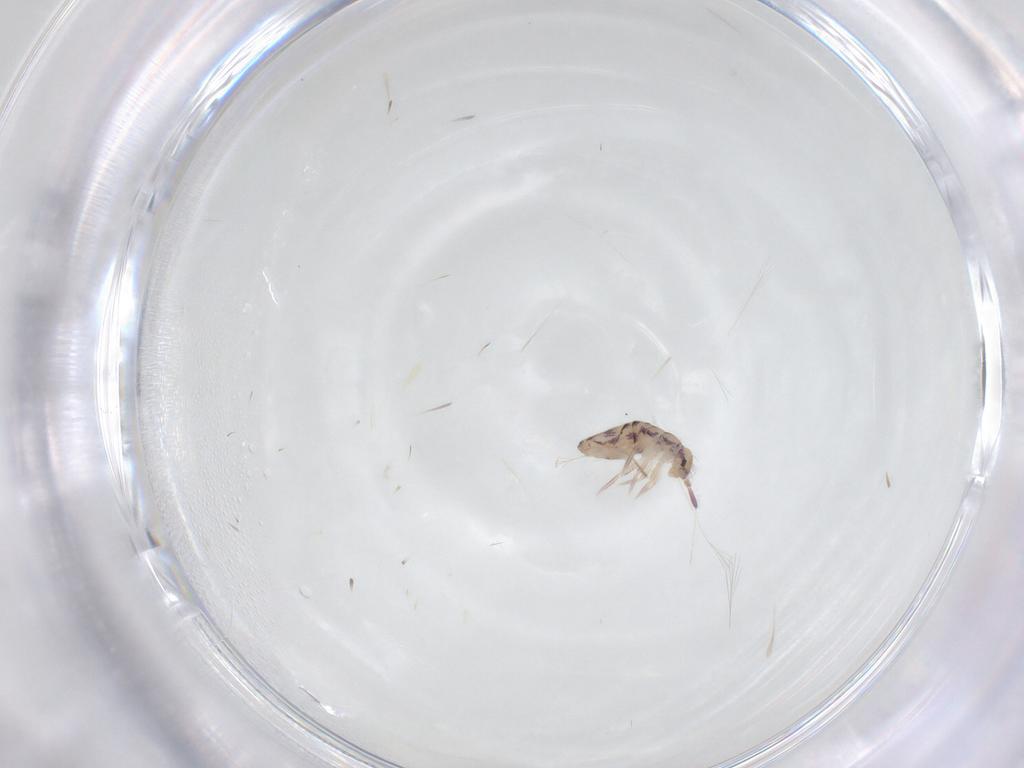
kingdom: Animalia
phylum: Arthropoda
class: Collembola
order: Entomobryomorpha
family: Entomobryidae
